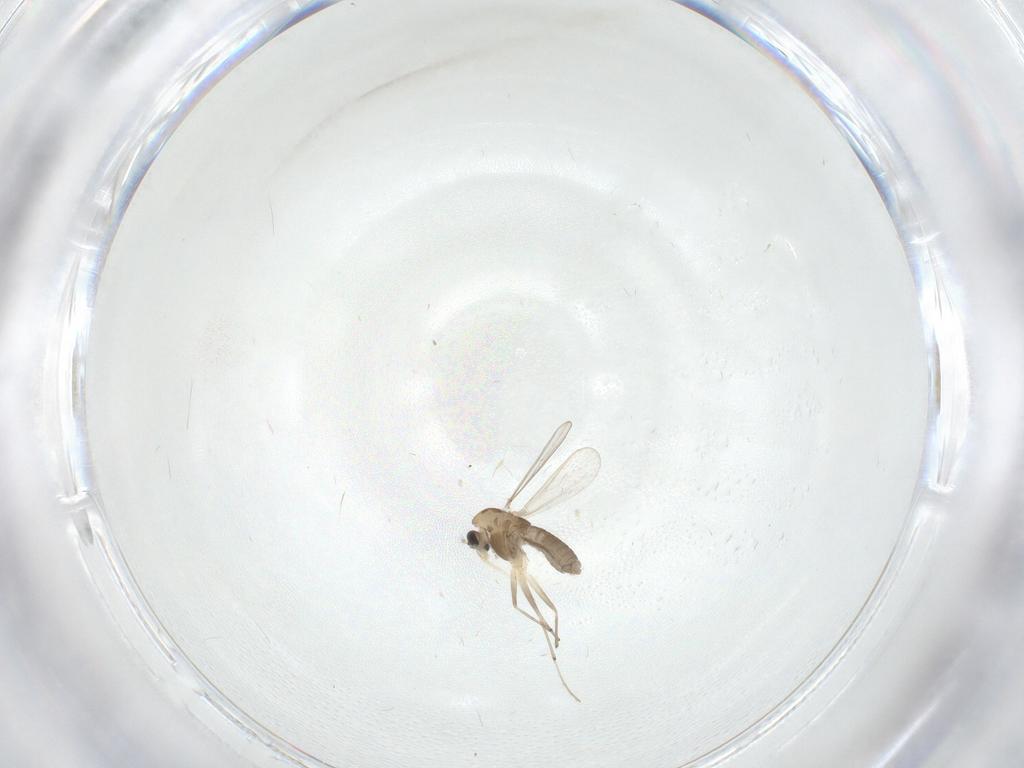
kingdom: Animalia
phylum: Arthropoda
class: Insecta
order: Diptera
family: Chironomidae
